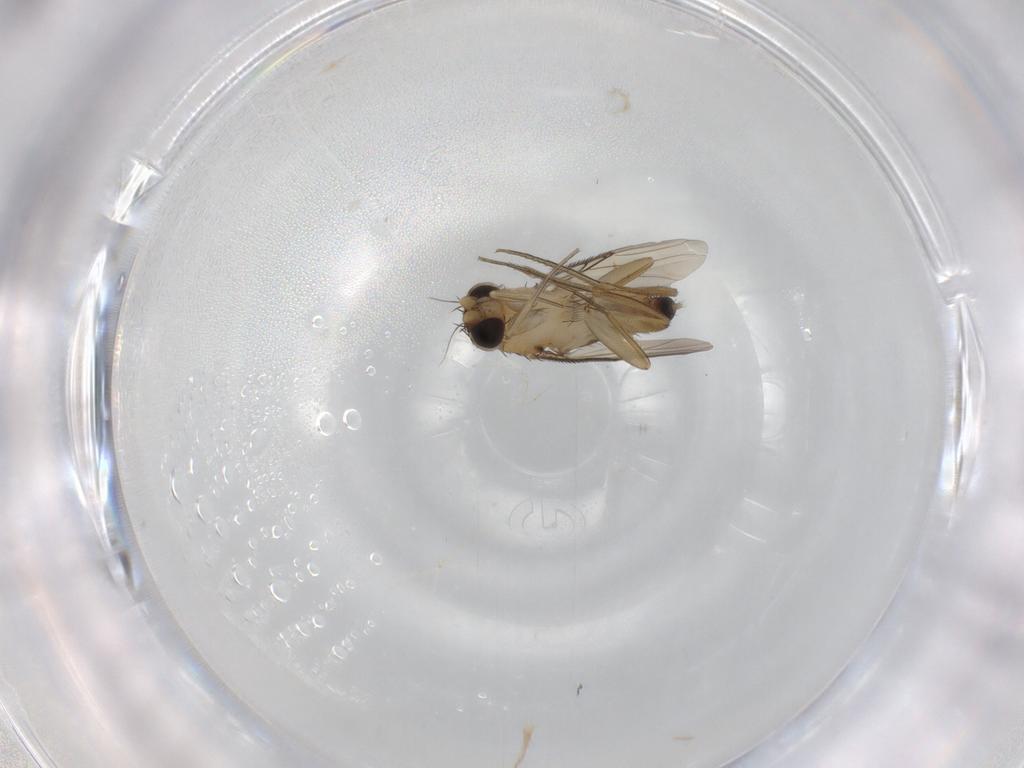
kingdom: Animalia
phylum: Arthropoda
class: Insecta
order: Diptera
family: Phoridae
